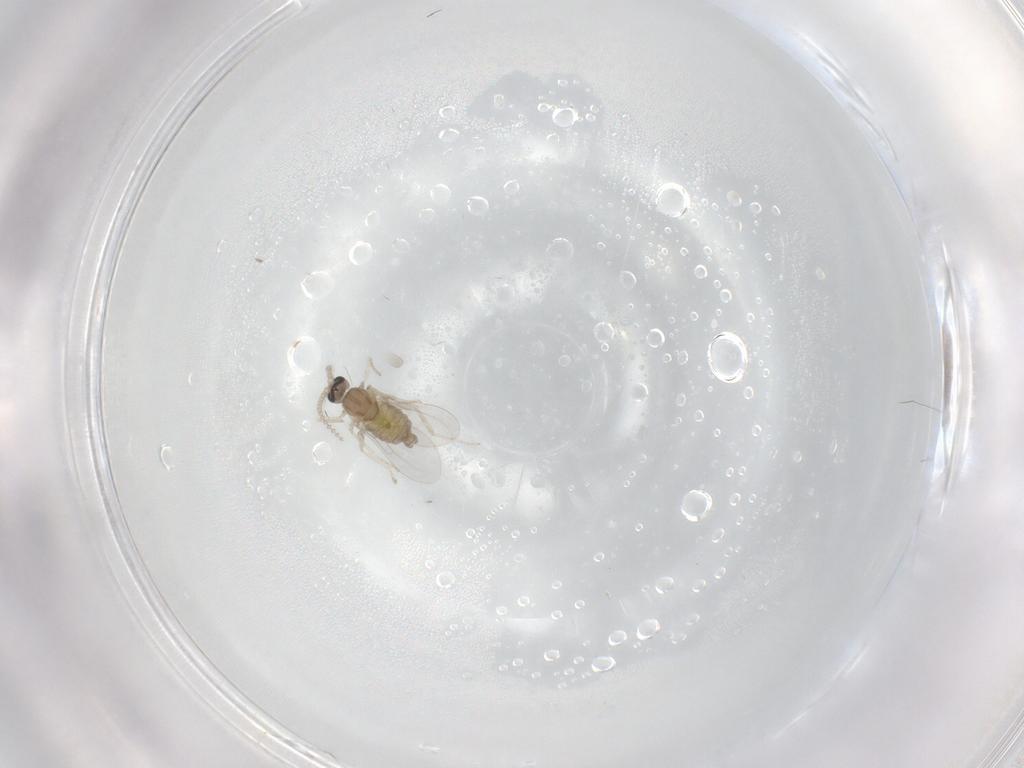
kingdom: Animalia
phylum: Arthropoda
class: Insecta
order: Diptera
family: Cecidomyiidae
